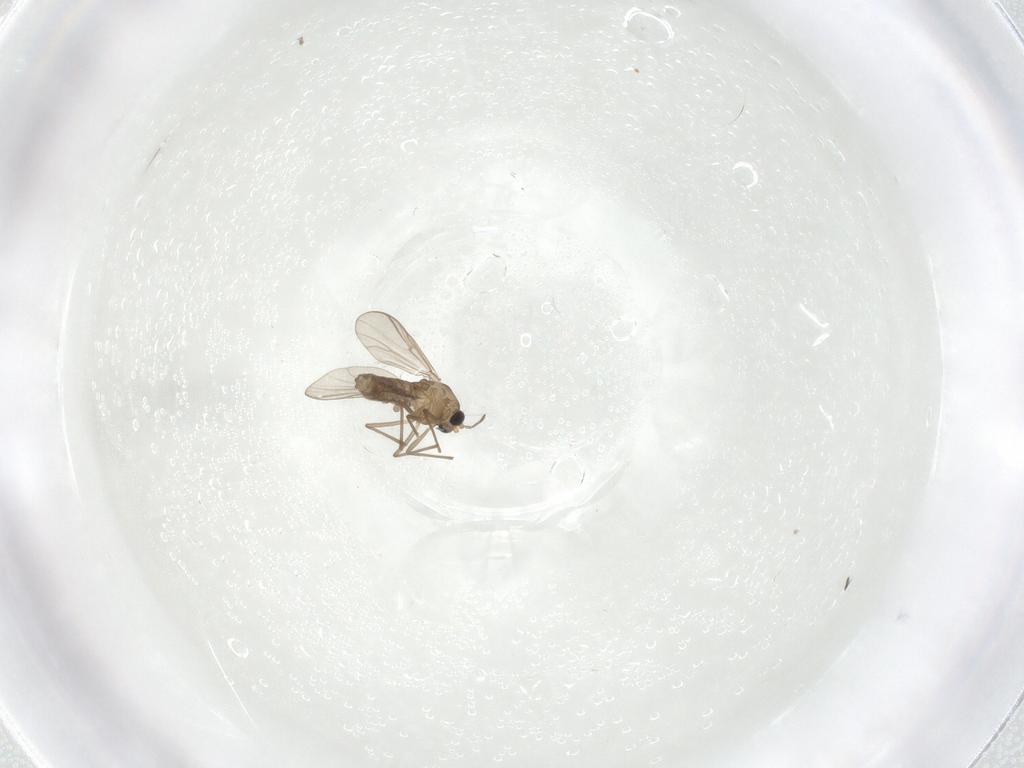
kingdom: Animalia
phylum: Arthropoda
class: Insecta
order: Diptera
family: Chironomidae
